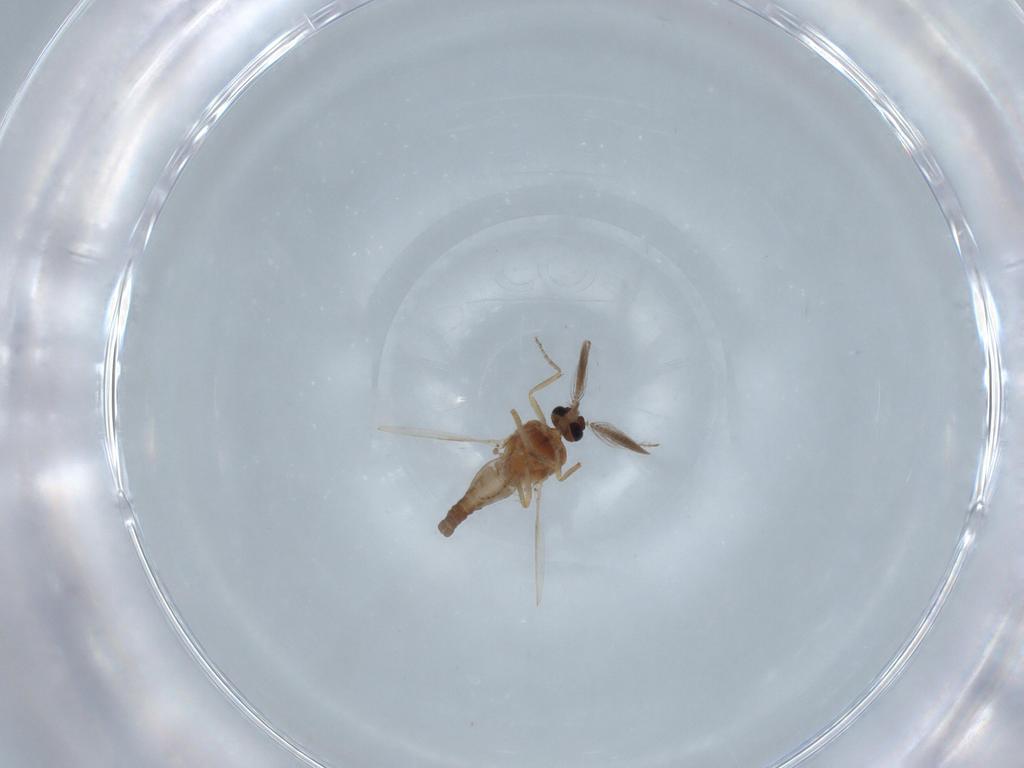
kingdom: Animalia
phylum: Arthropoda
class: Insecta
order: Diptera
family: Ceratopogonidae
